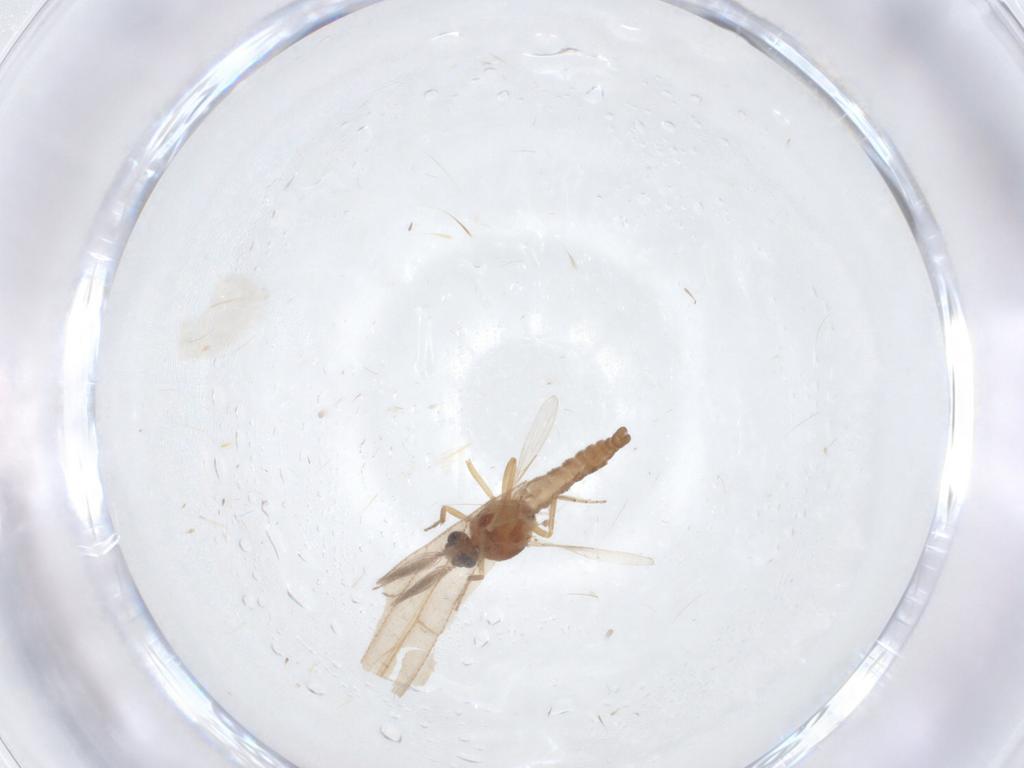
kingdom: Animalia
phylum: Arthropoda
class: Insecta
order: Diptera
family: Ceratopogonidae
